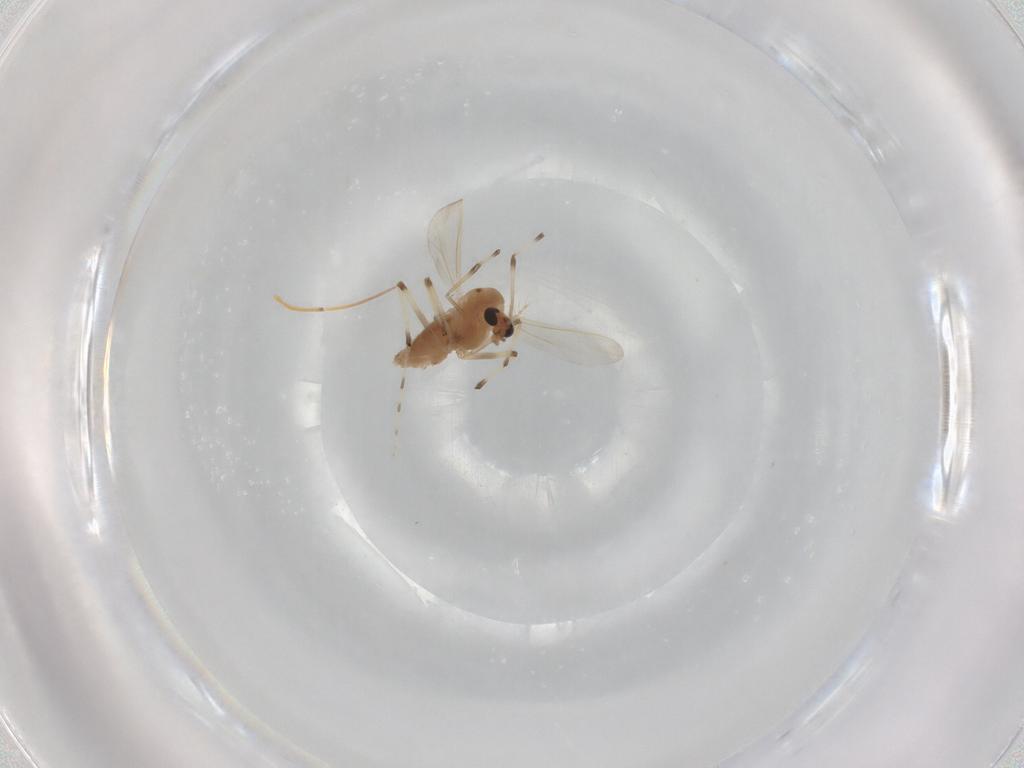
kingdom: Animalia
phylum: Arthropoda
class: Insecta
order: Diptera
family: Chironomidae
